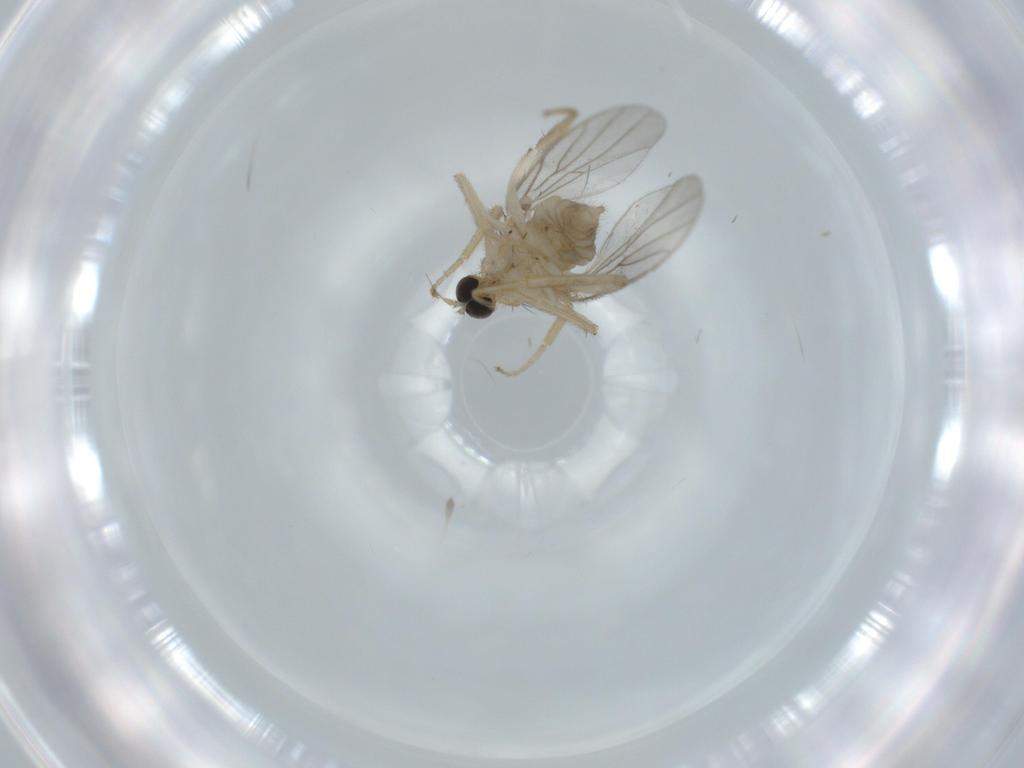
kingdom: Animalia
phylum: Arthropoda
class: Insecta
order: Diptera
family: Hybotidae
